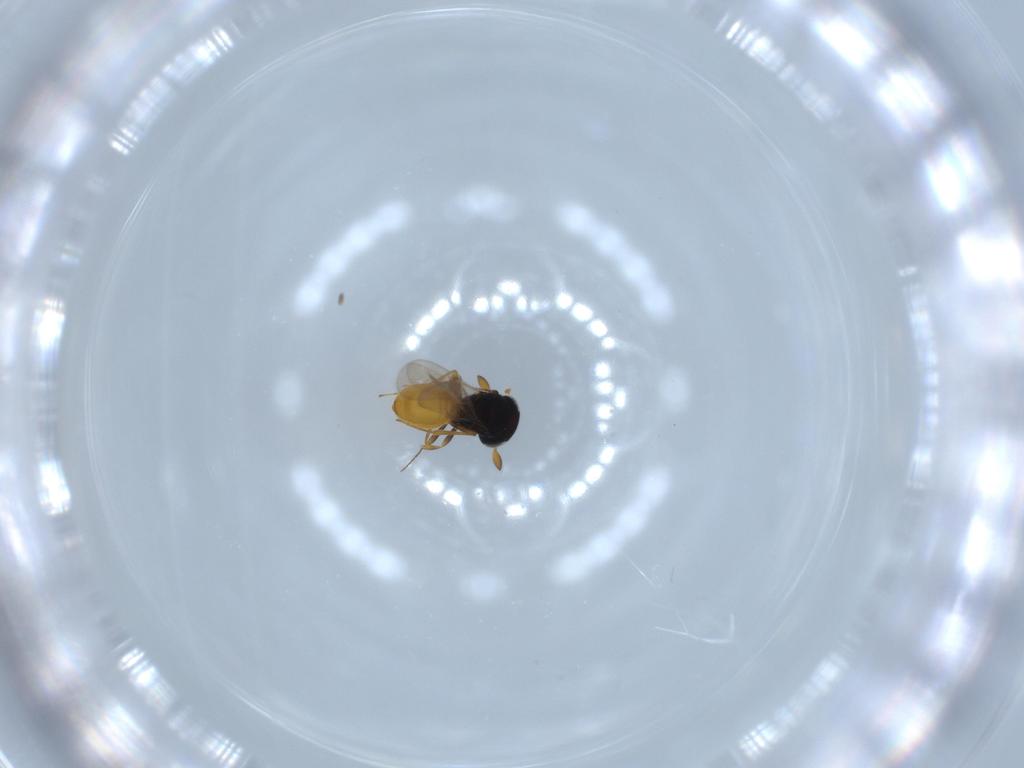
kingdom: Animalia
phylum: Arthropoda
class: Insecta
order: Hymenoptera
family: Scelionidae
